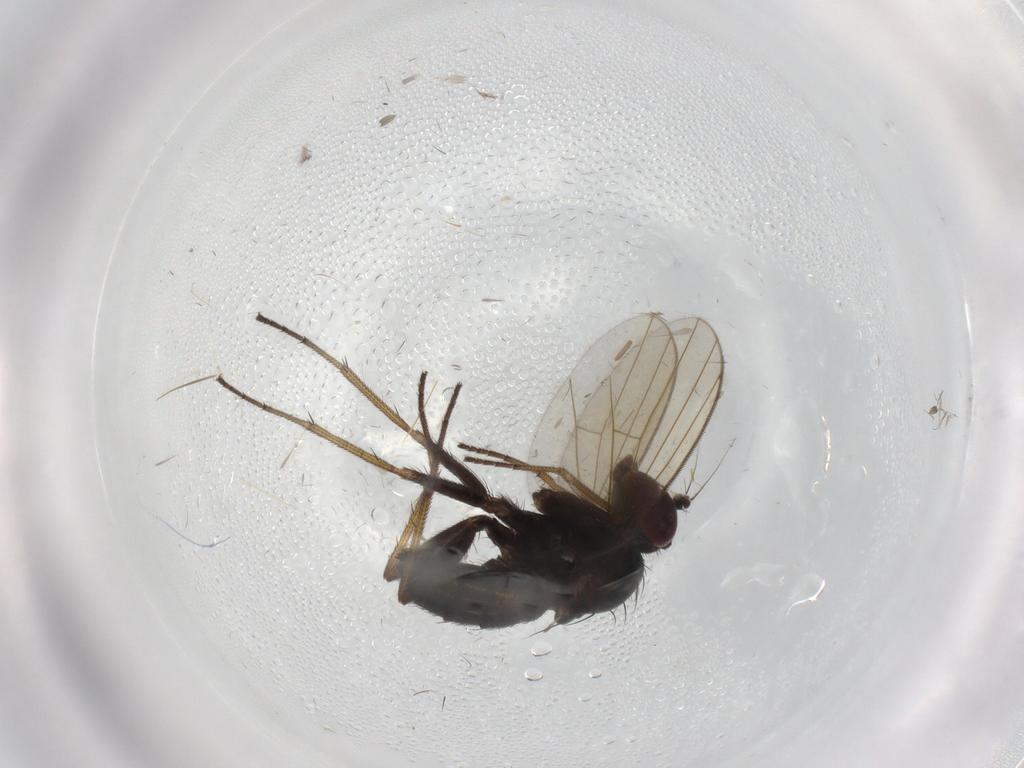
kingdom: Animalia
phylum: Arthropoda
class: Insecta
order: Diptera
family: Dolichopodidae
